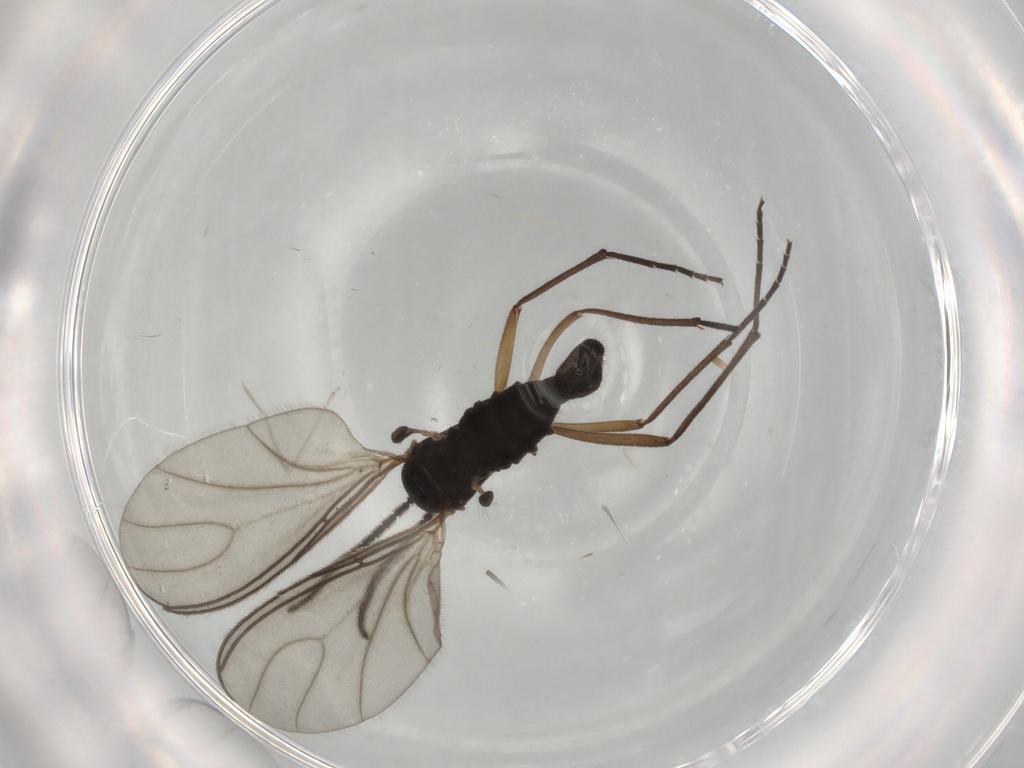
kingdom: Animalia
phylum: Arthropoda
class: Insecta
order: Diptera
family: Sciaridae
